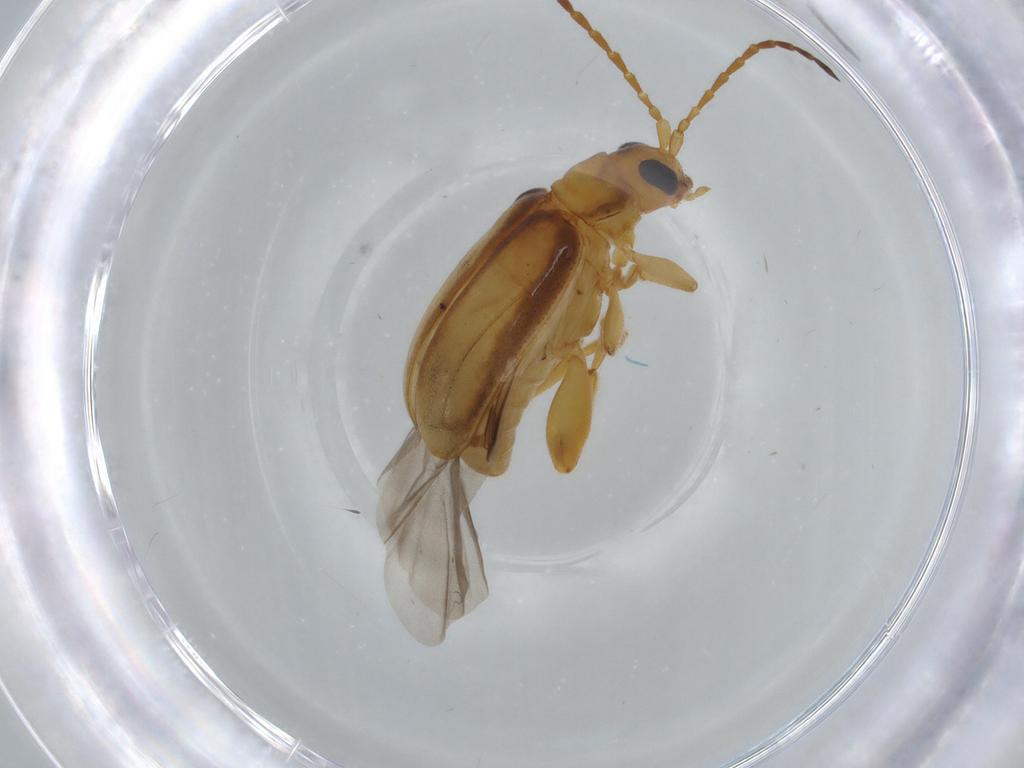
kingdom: Animalia
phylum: Arthropoda
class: Insecta
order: Coleoptera
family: Chrysomelidae
